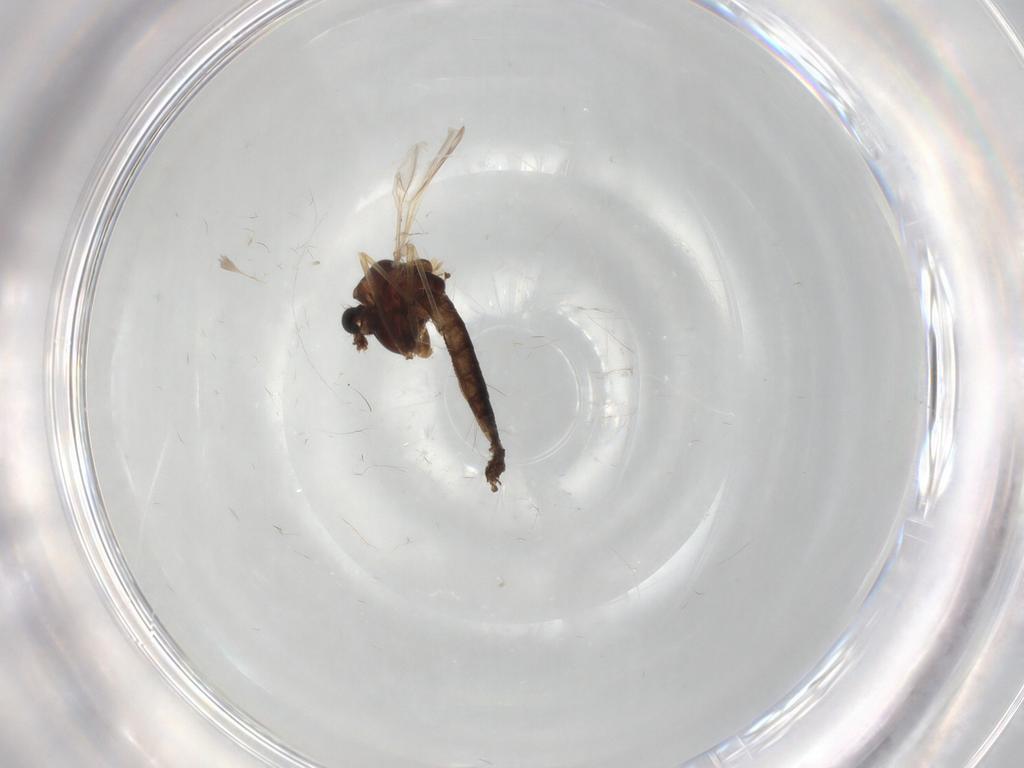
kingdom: Animalia
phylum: Arthropoda
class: Insecta
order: Diptera
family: Chironomidae
